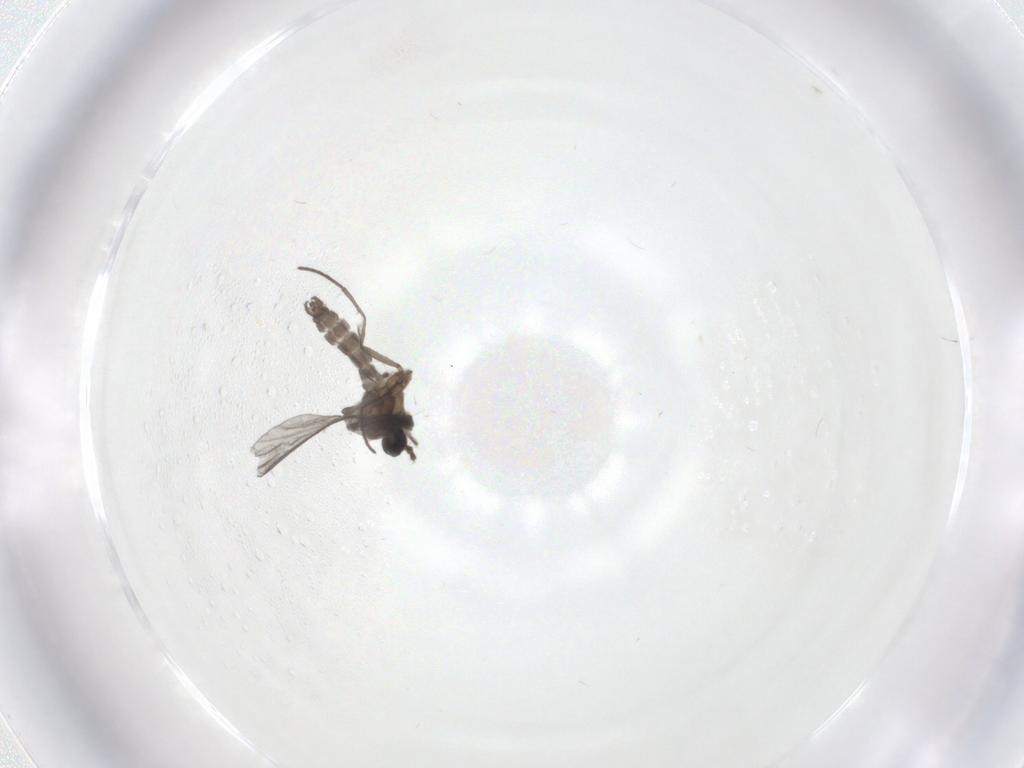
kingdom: Animalia
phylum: Arthropoda
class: Insecta
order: Diptera
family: Chironomidae
